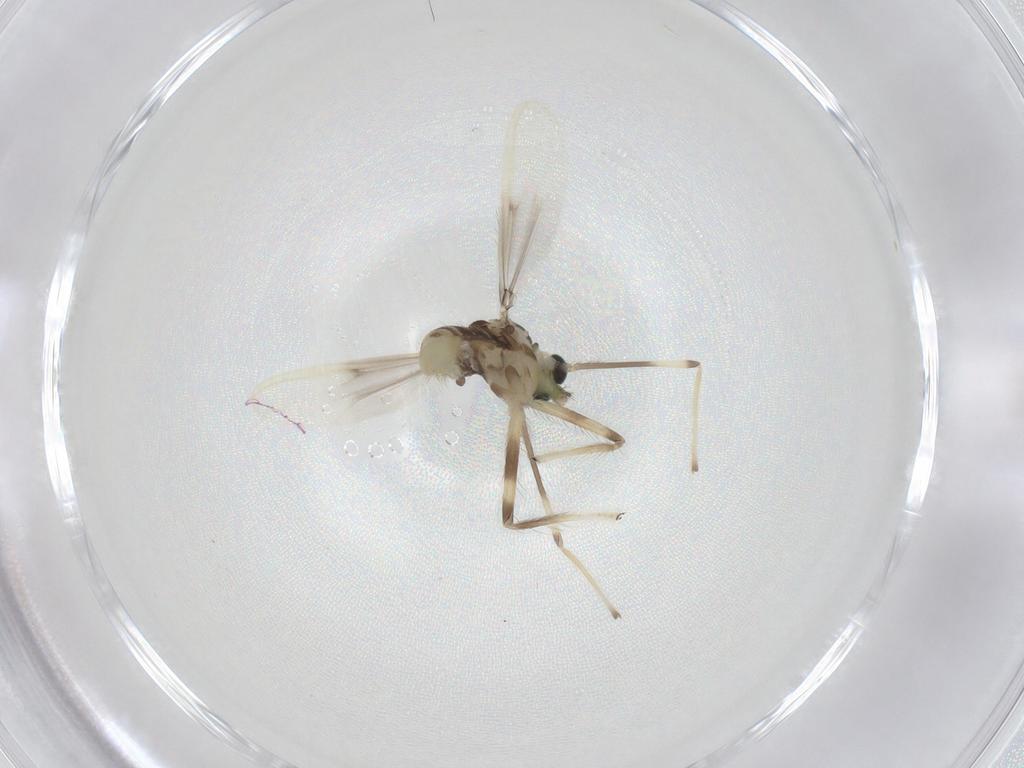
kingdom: Animalia
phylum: Arthropoda
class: Insecta
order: Diptera
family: Chironomidae
